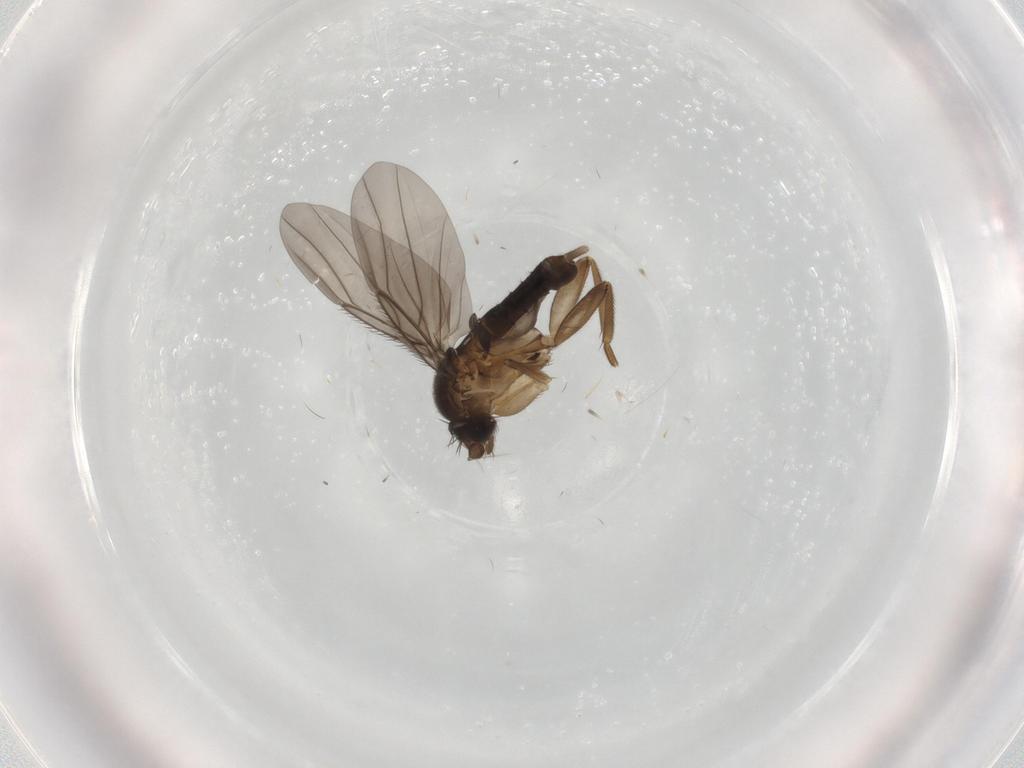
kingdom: Animalia
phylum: Arthropoda
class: Insecta
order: Diptera
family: Phoridae
